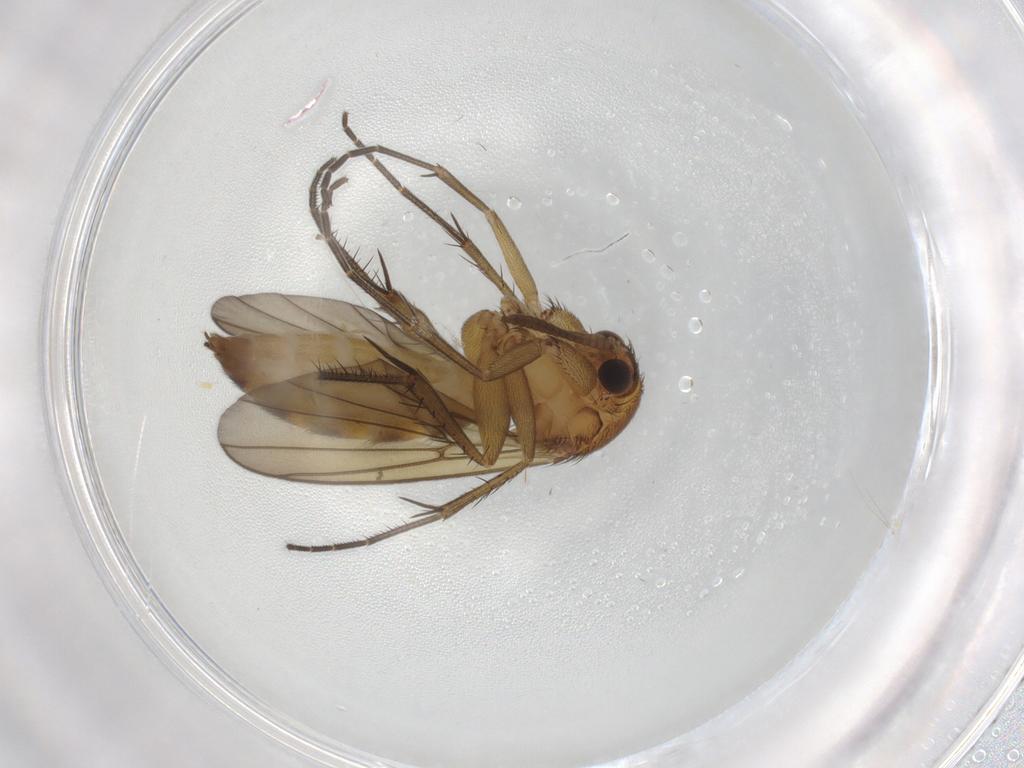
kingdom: Animalia
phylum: Arthropoda
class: Insecta
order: Diptera
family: Mycetophilidae
